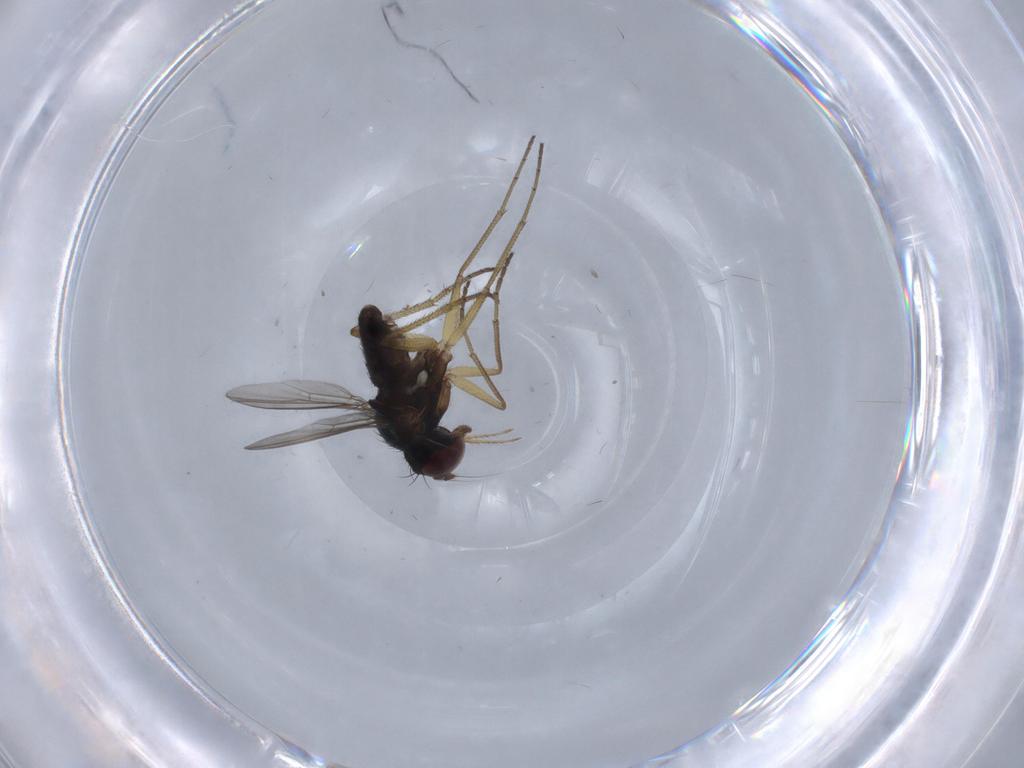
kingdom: Animalia
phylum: Arthropoda
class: Insecta
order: Diptera
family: Dolichopodidae
